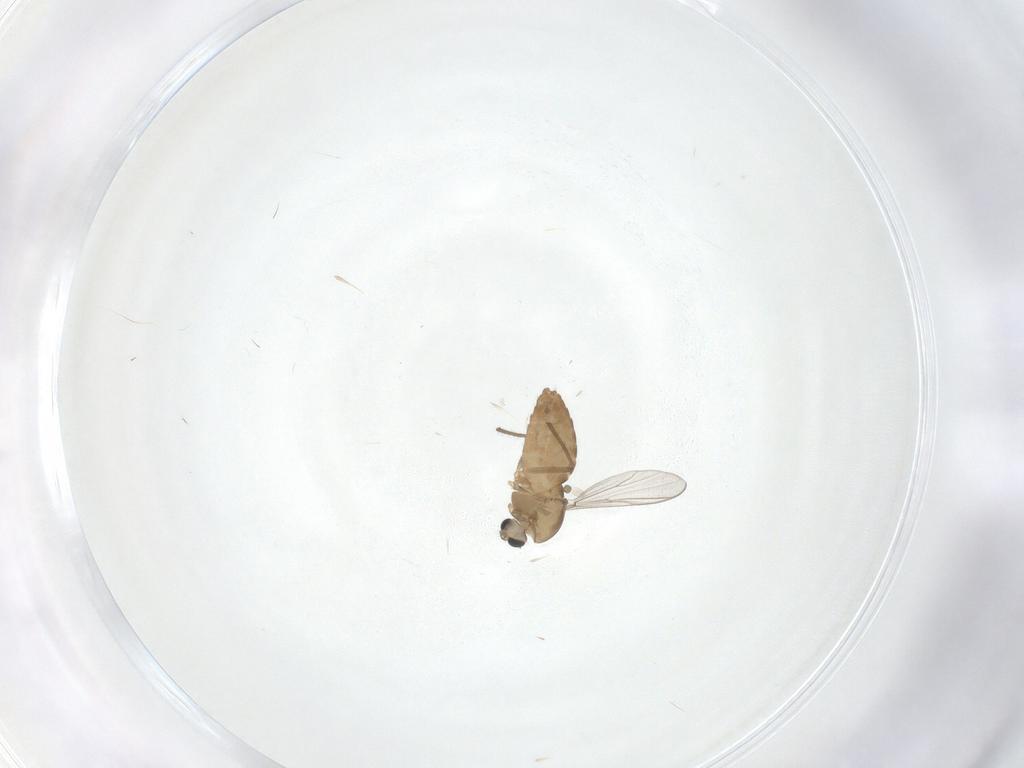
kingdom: Animalia
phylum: Arthropoda
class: Insecta
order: Diptera
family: Chironomidae
